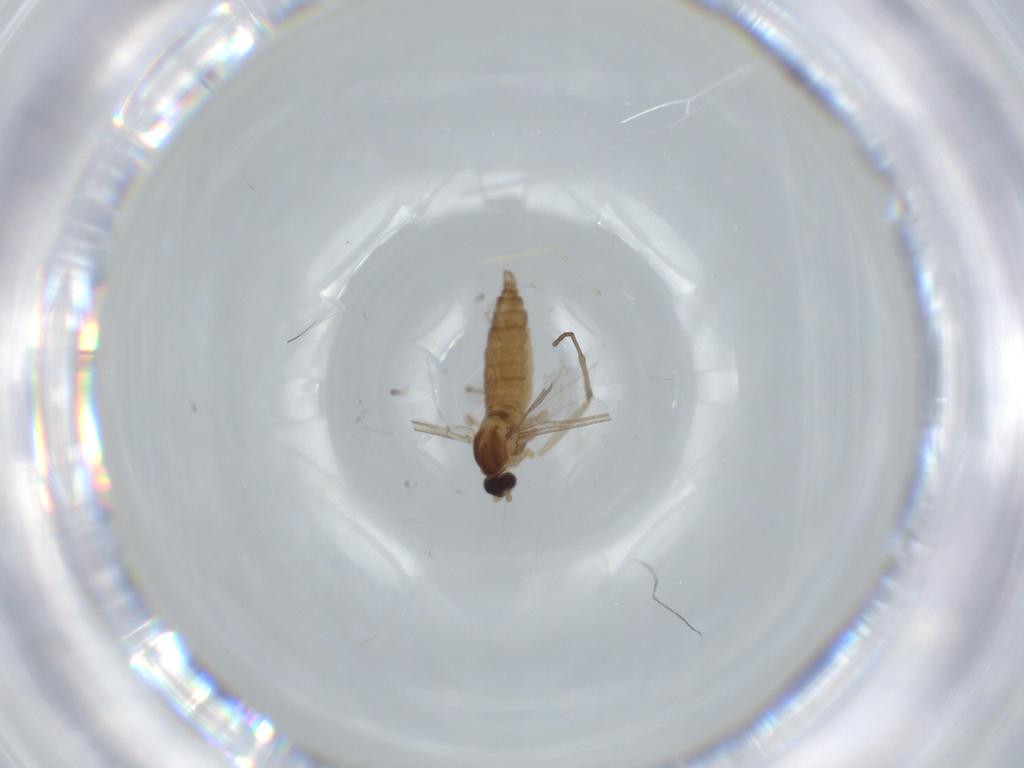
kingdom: Animalia
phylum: Arthropoda
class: Insecta
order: Diptera
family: Cecidomyiidae
